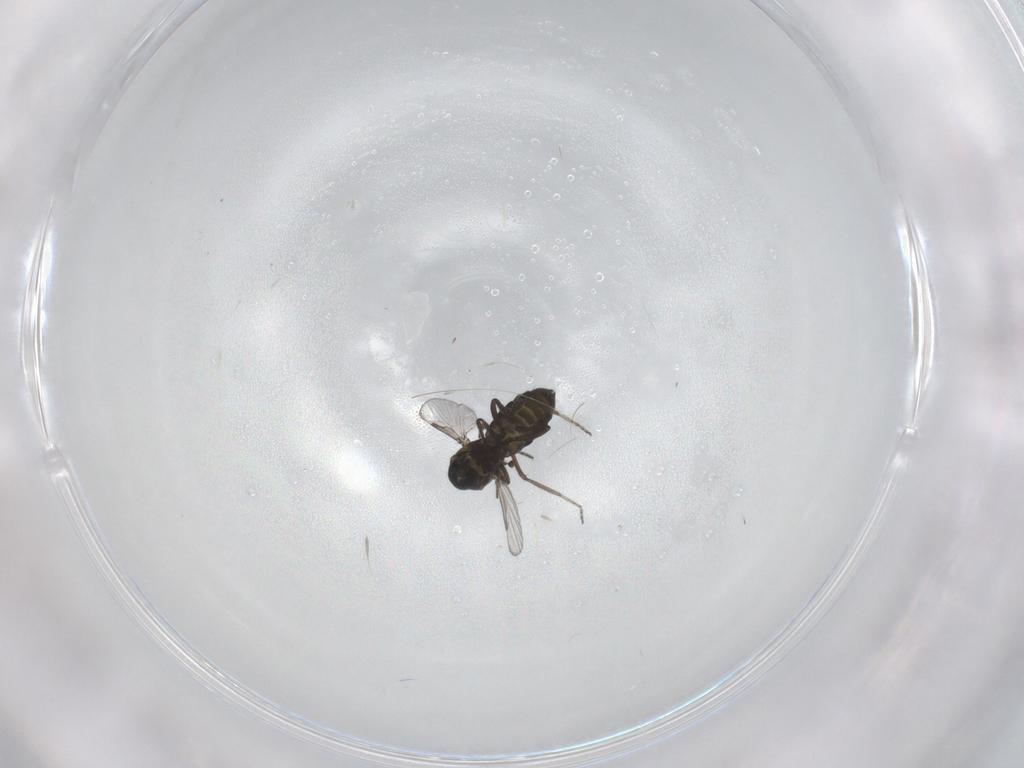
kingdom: Animalia
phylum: Arthropoda
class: Insecta
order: Diptera
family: Ceratopogonidae
